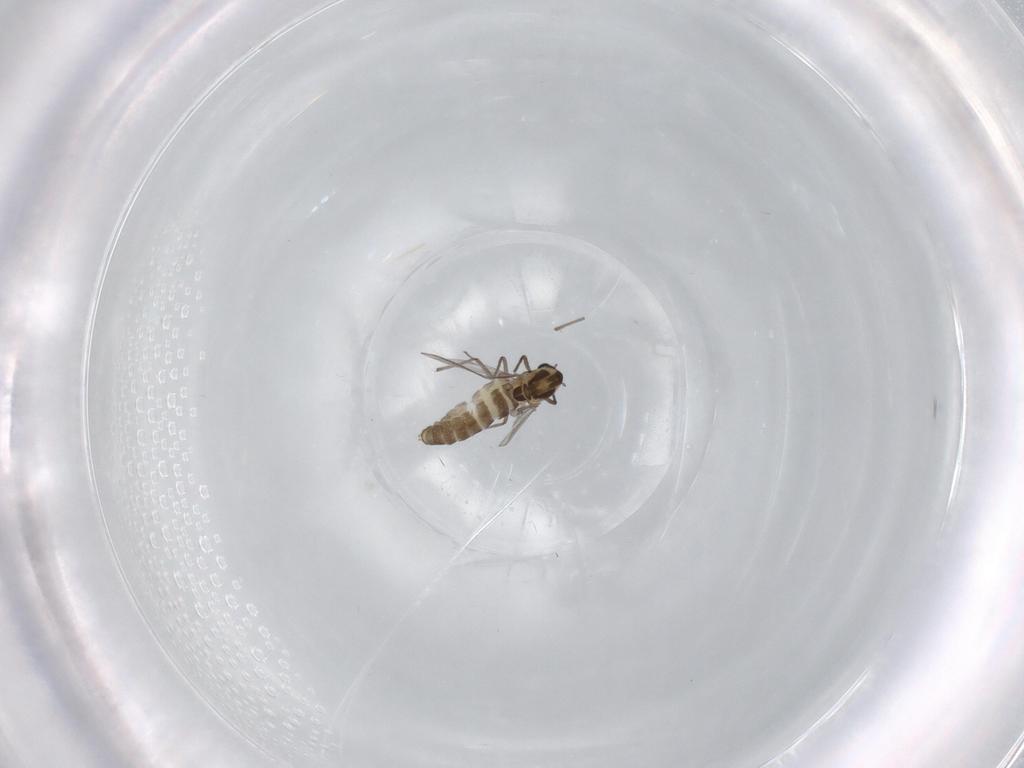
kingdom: Animalia
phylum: Arthropoda
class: Insecta
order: Diptera
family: Chironomidae
